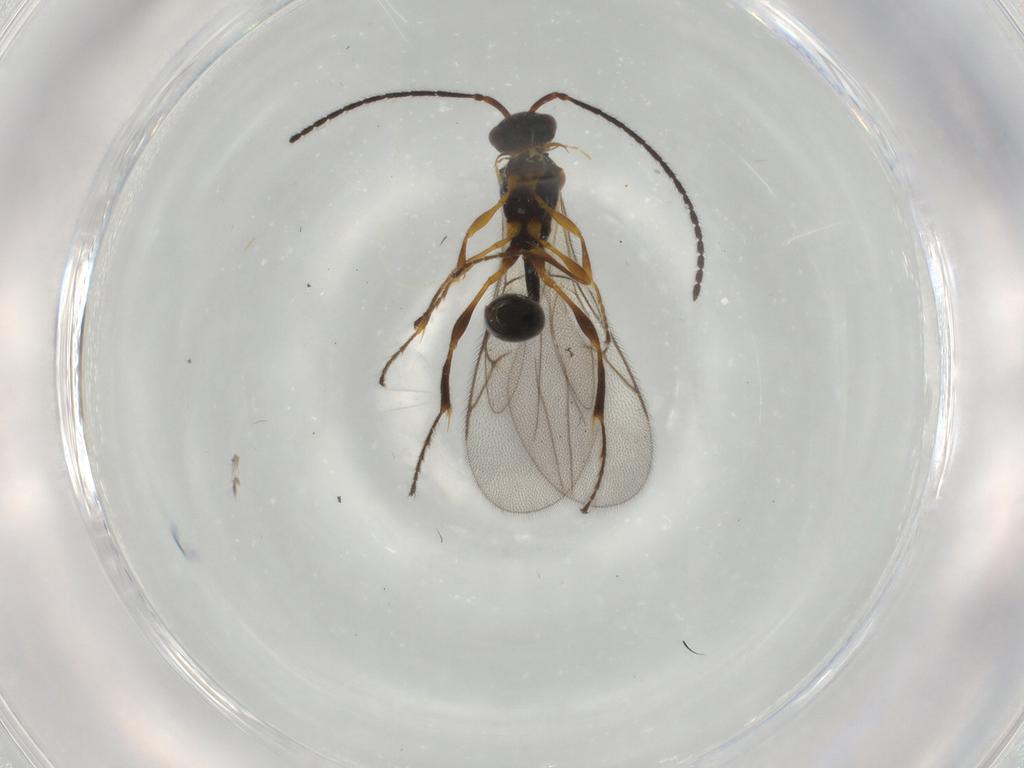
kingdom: Animalia
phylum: Arthropoda
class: Insecta
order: Hymenoptera
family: Diapriidae
